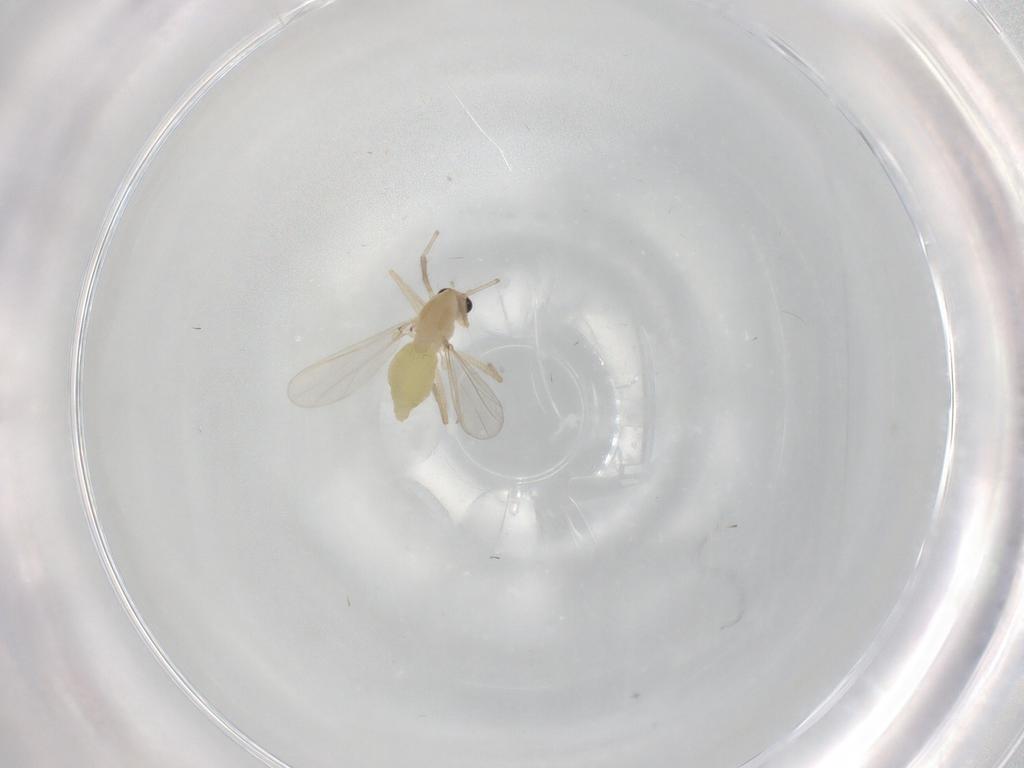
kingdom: Animalia
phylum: Arthropoda
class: Insecta
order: Diptera
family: Chironomidae
